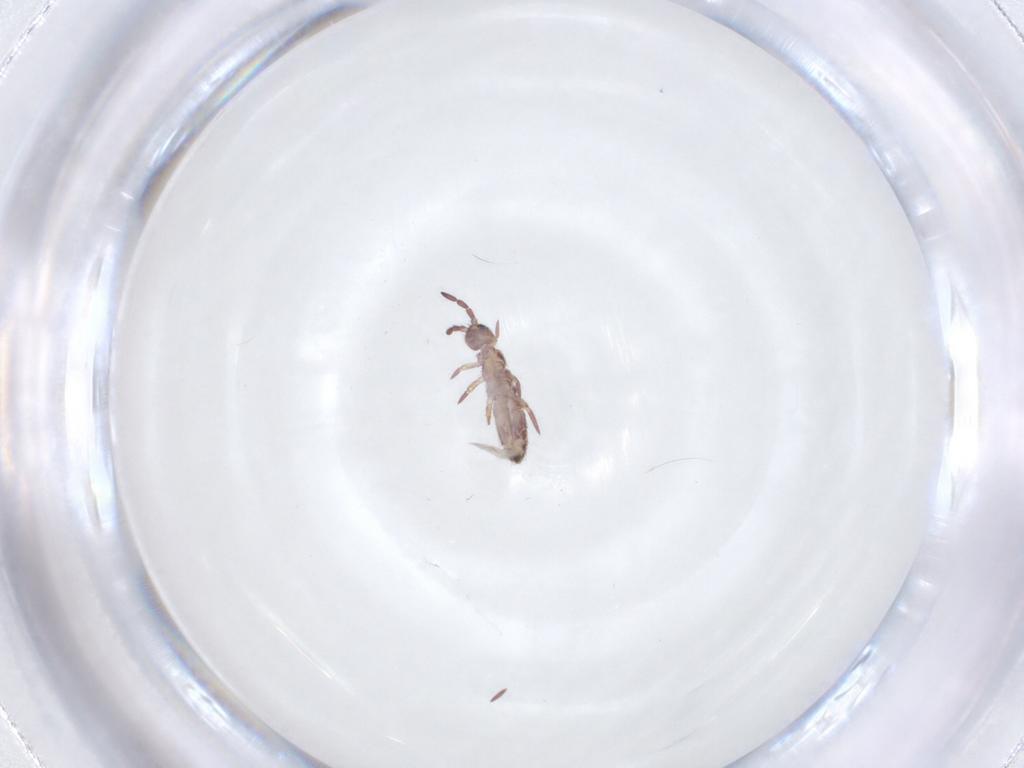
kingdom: Animalia
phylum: Arthropoda
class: Collembola
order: Entomobryomorpha
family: Isotomidae
